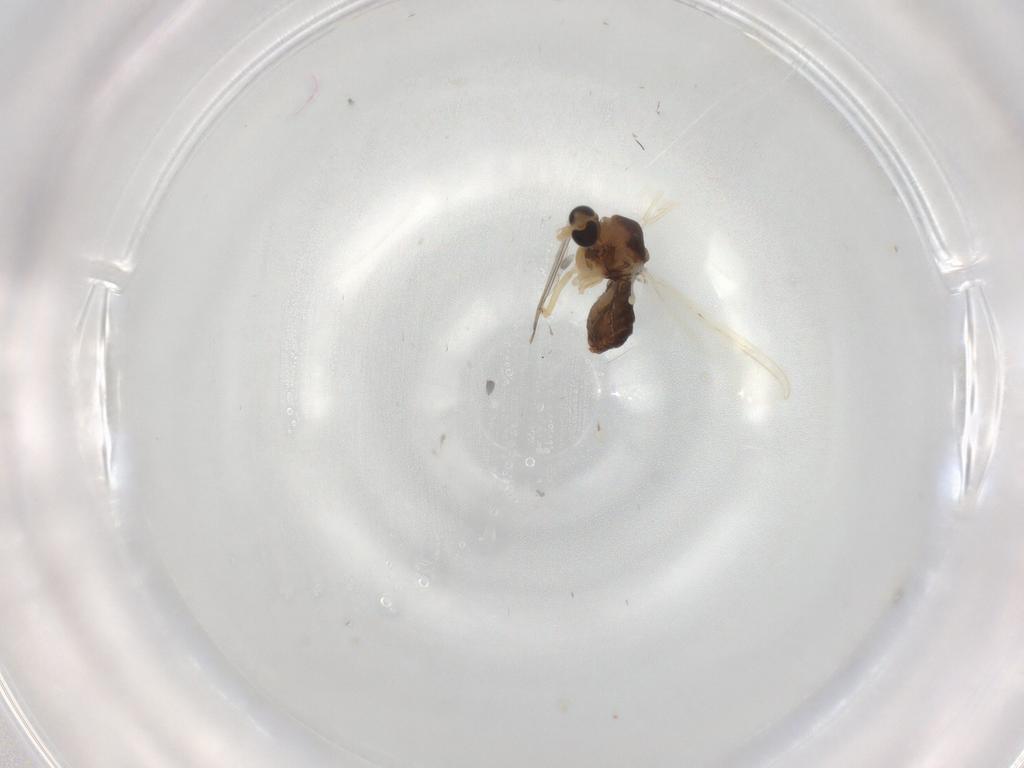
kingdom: Animalia
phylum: Arthropoda
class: Insecta
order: Diptera
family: Chironomidae
